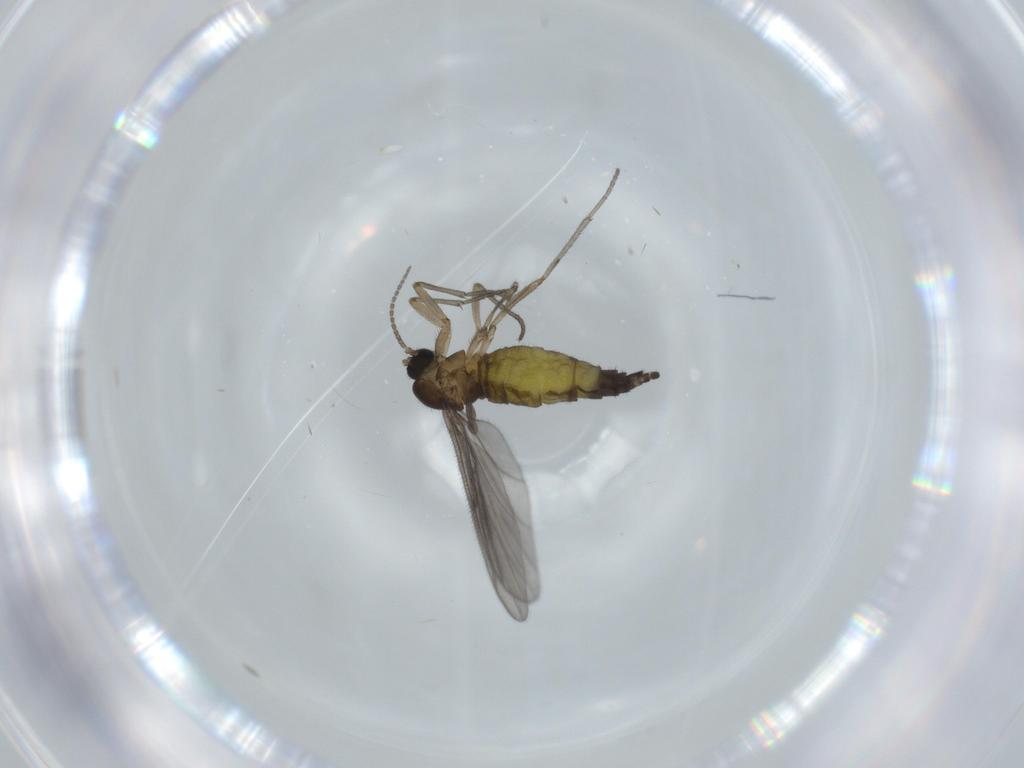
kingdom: Animalia
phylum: Arthropoda
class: Insecta
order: Diptera
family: Sciaridae
